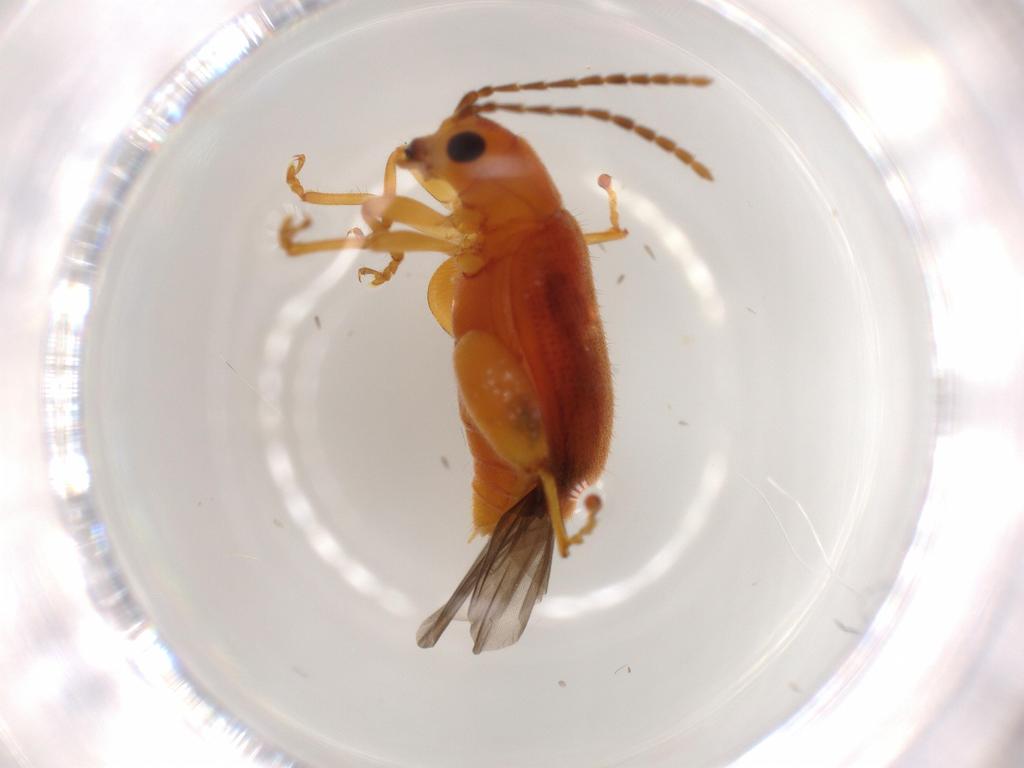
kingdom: Animalia
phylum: Arthropoda
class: Insecta
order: Coleoptera
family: Chrysomelidae
